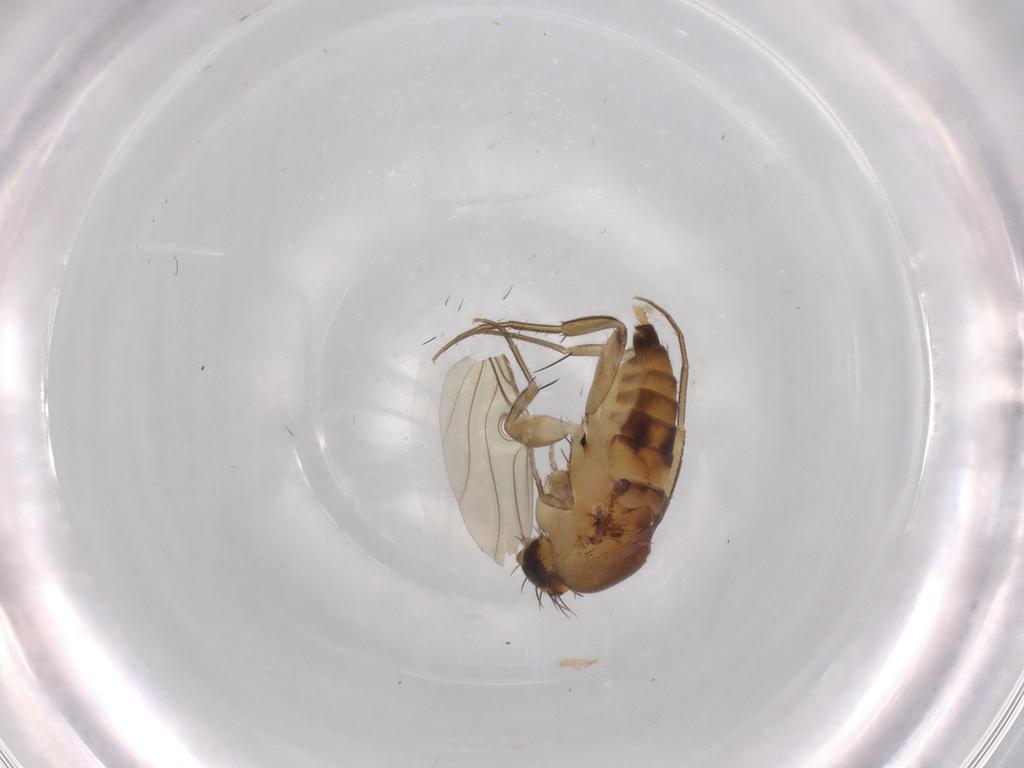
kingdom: Animalia
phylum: Arthropoda
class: Insecta
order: Diptera
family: Phoridae
